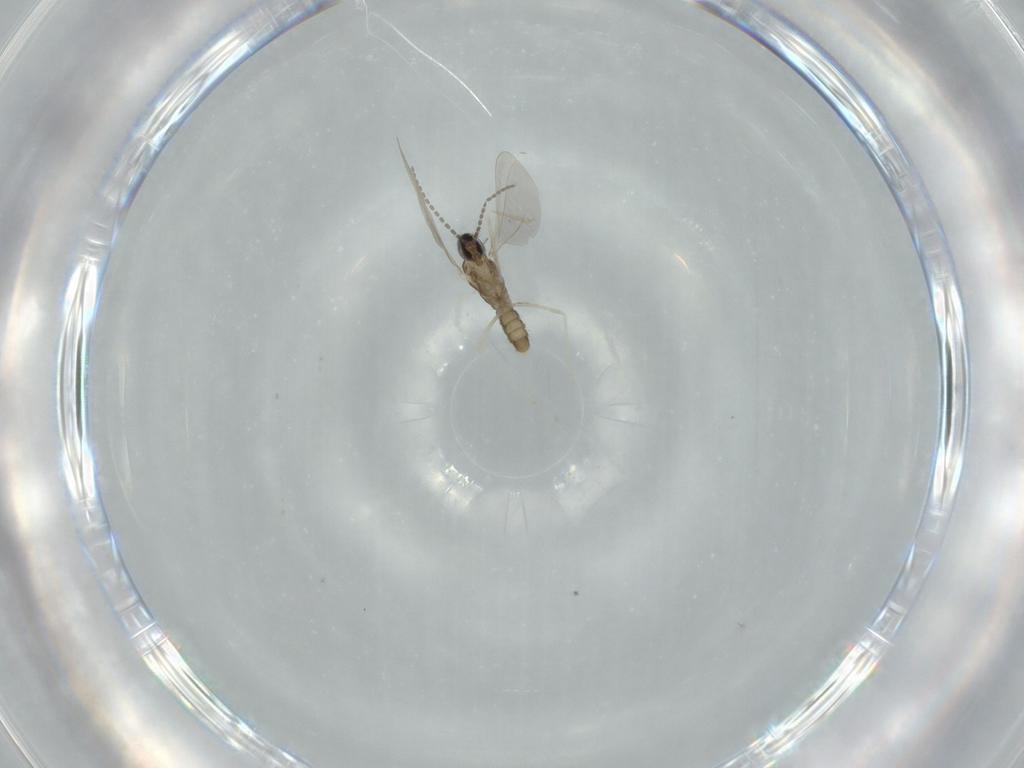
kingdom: Animalia
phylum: Arthropoda
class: Insecta
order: Diptera
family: Cecidomyiidae
